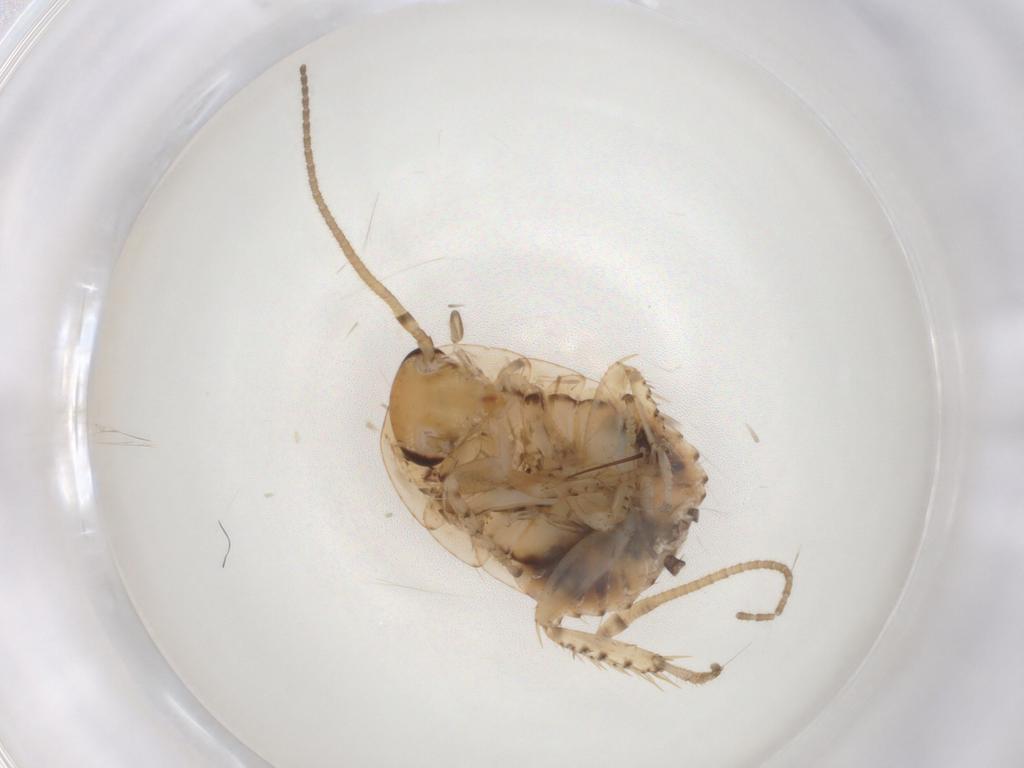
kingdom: Animalia
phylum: Arthropoda
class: Insecta
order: Blattodea
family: Blaberidae
